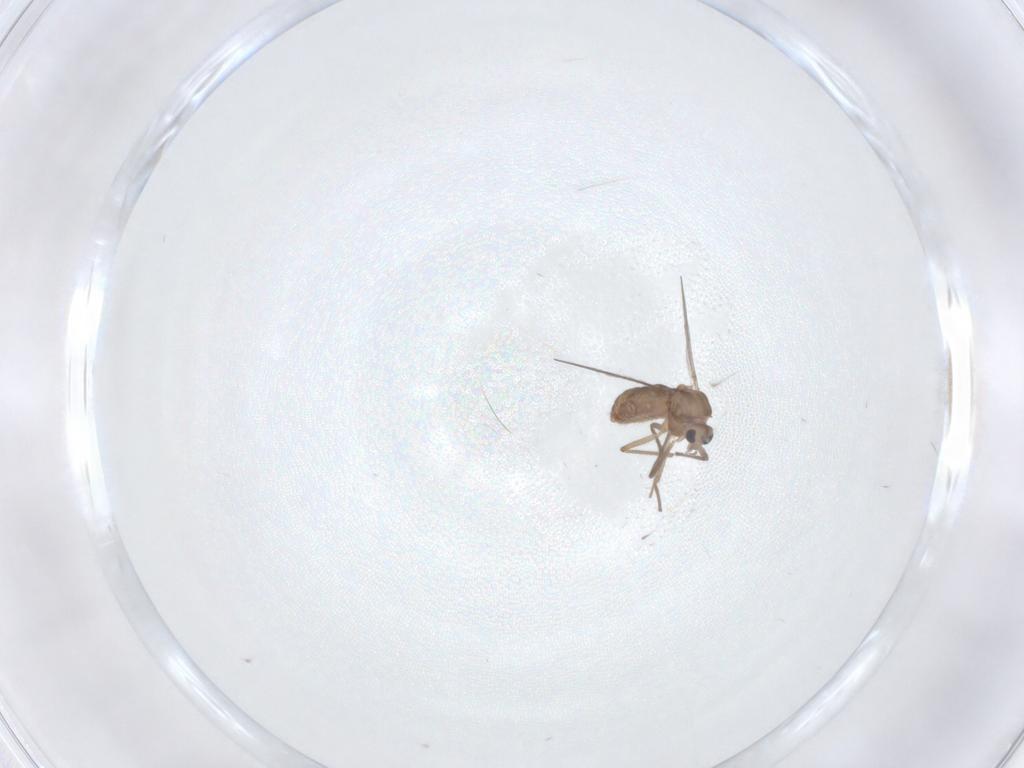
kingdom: Animalia
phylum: Arthropoda
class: Insecta
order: Diptera
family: Chironomidae
